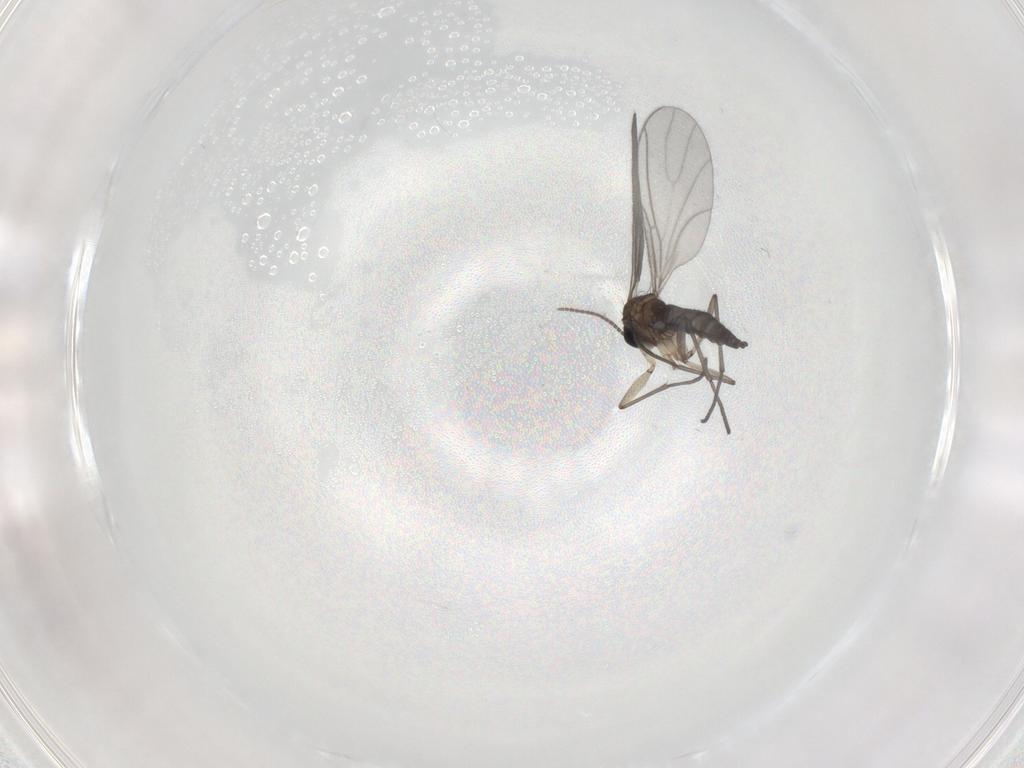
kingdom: Animalia
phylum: Arthropoda
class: Insecta
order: Diptera
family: Sciaridae
